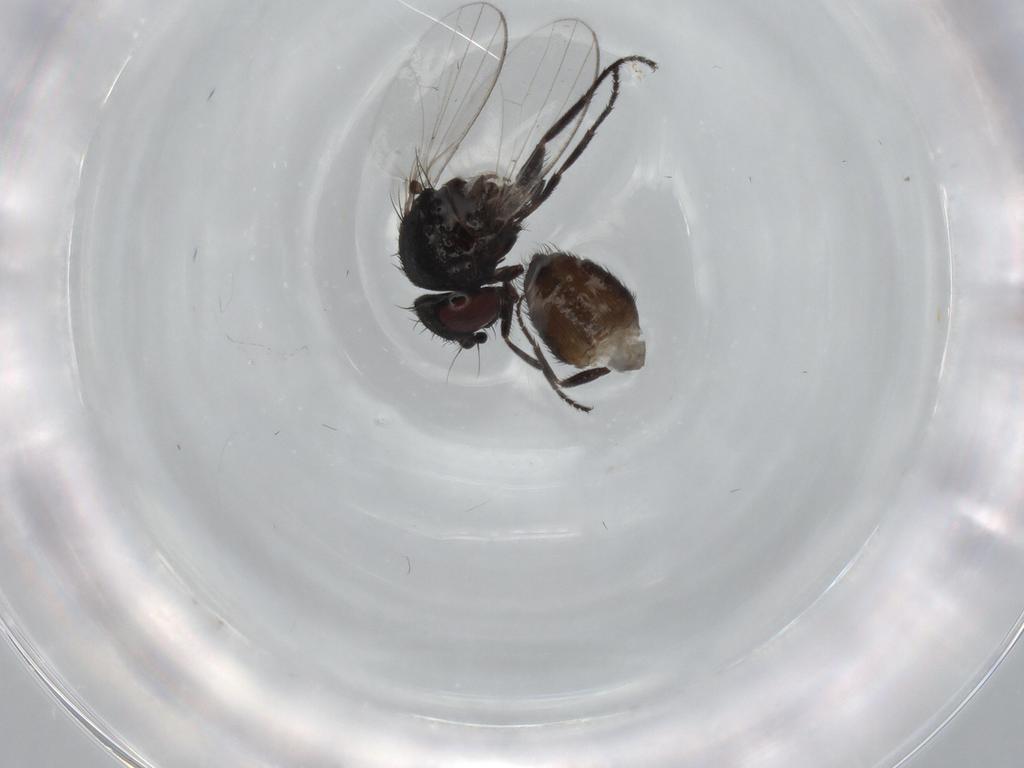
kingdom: Animalia
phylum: Arthropoda
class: Insecta
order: Diptera
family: Milichiidae
